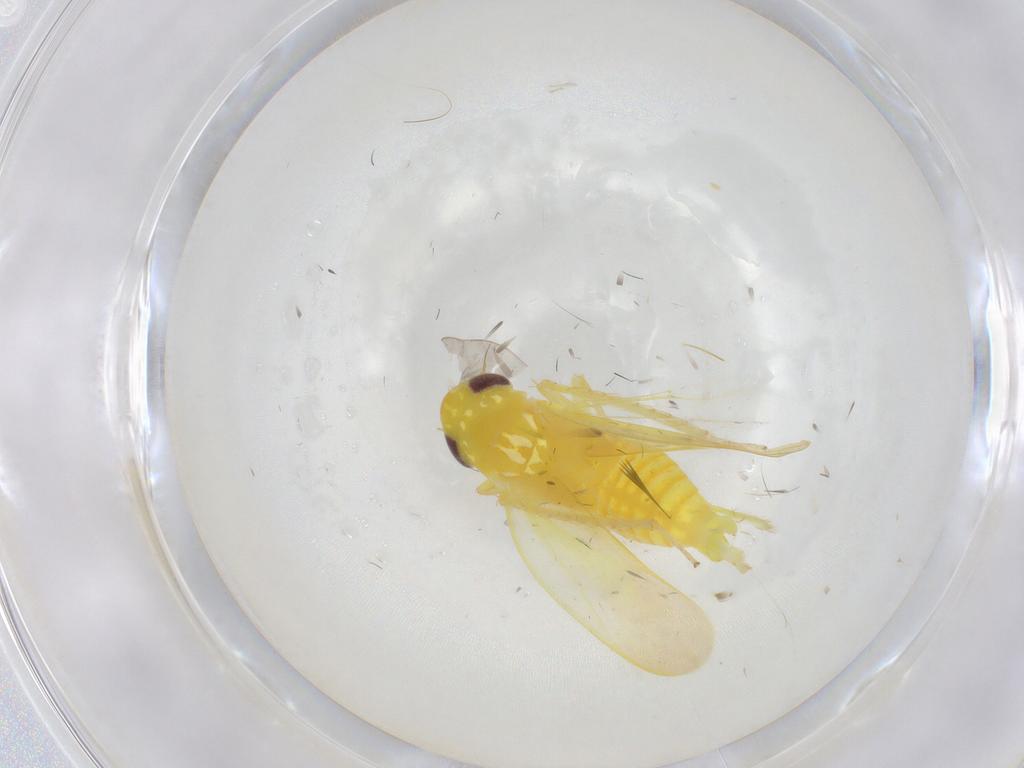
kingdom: Animalia
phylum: Arthropoda
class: Insecta
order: Hemiptera
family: Cicadellidae
